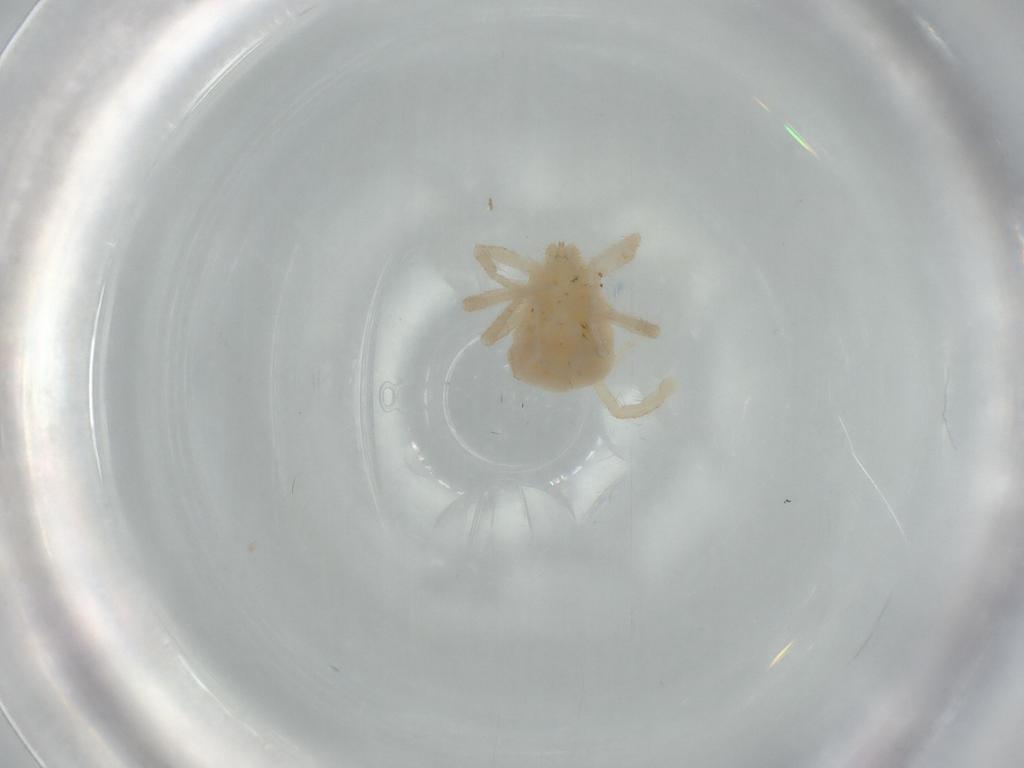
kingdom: Animalia
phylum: Arthropoda
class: Arachnida
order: Trombidiformes
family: Anystidae
